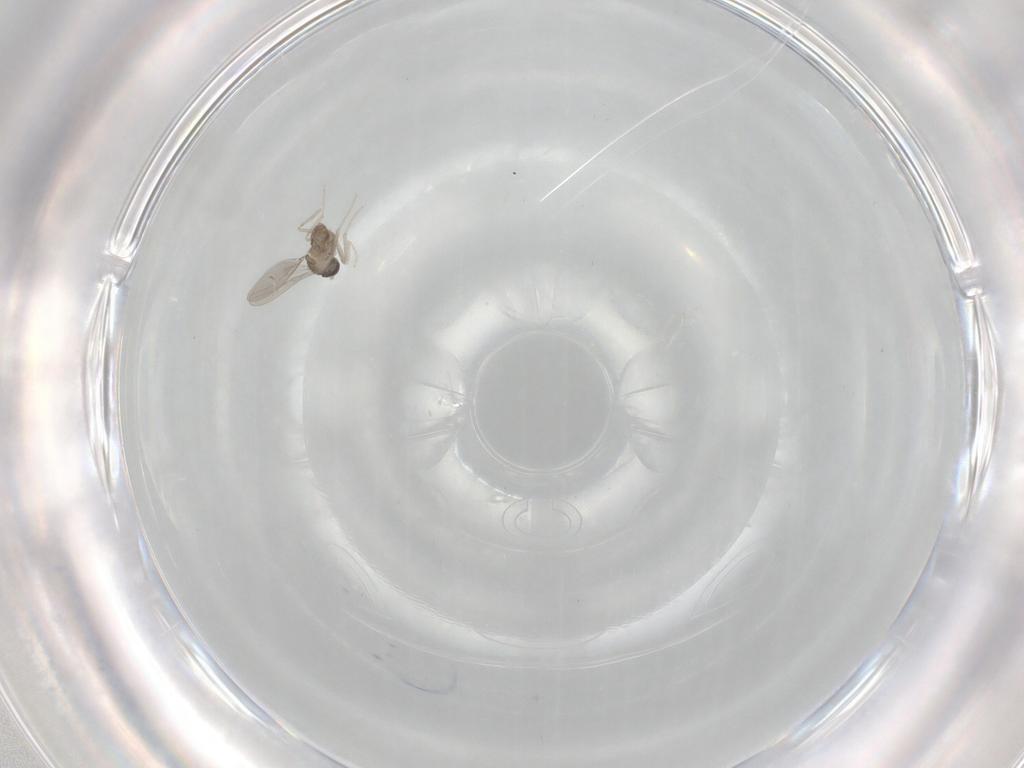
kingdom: Animalia
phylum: Arthropoda
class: Insecta
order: Diptera
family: Cecidomyiidae
